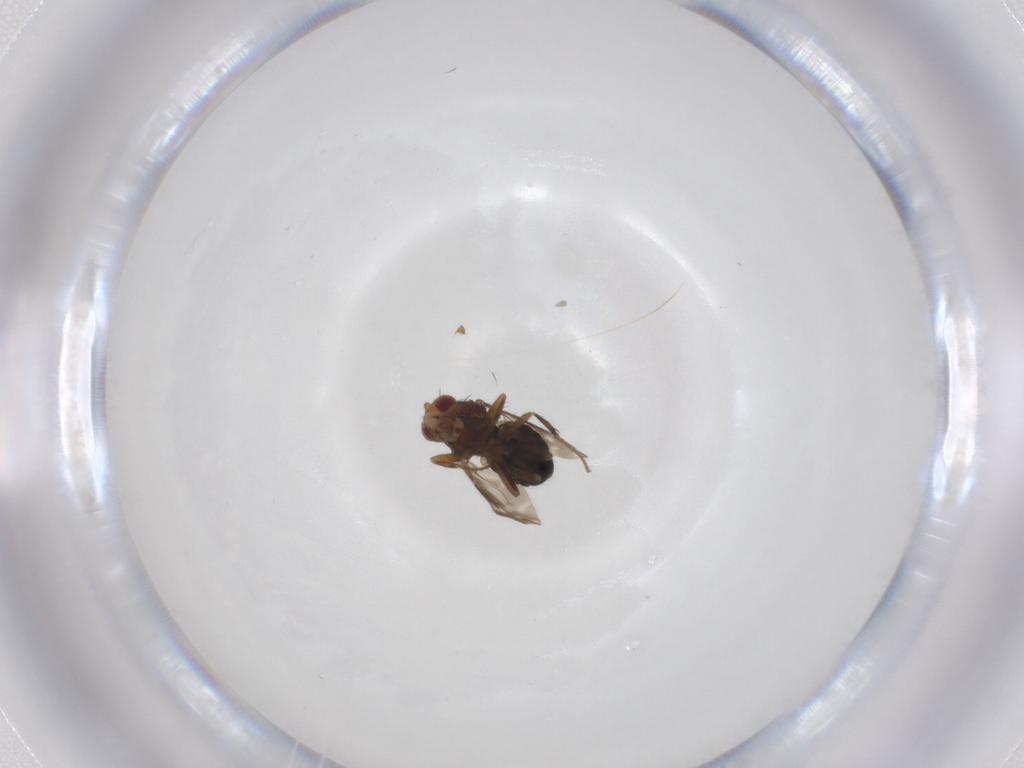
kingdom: Animalia
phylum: Arthropoda
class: Insecta
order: Diptera
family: Sphaeroceridae
